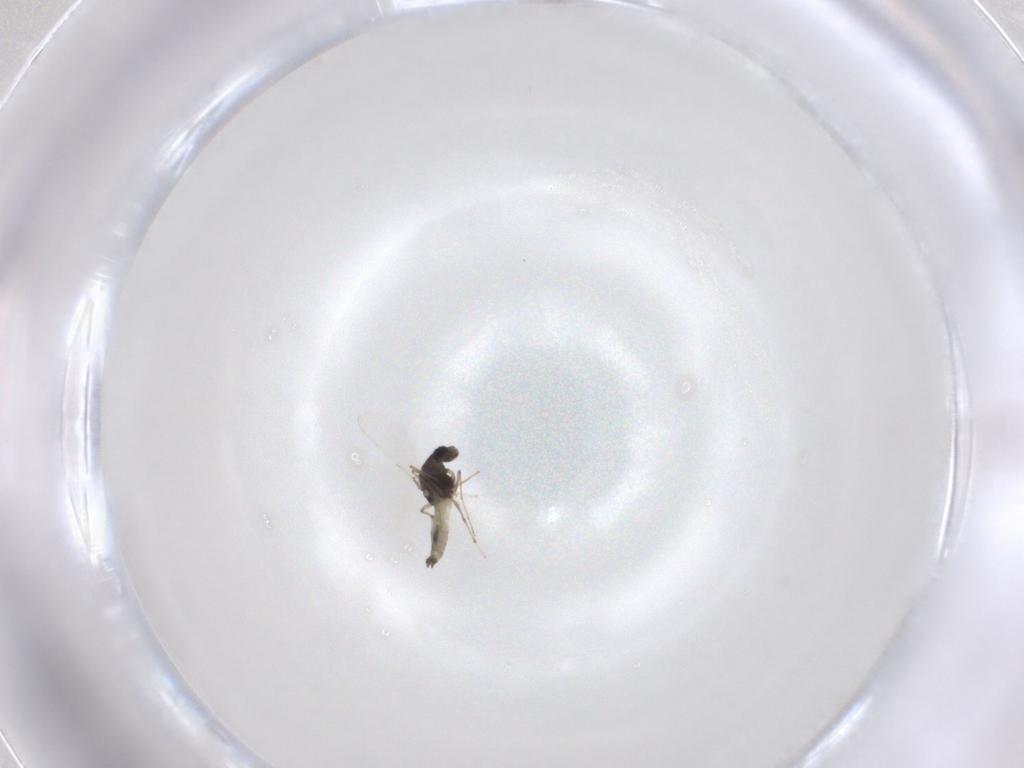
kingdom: Animalia
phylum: Arthropoda
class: Insecta
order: Diptera
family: Chironomidae
